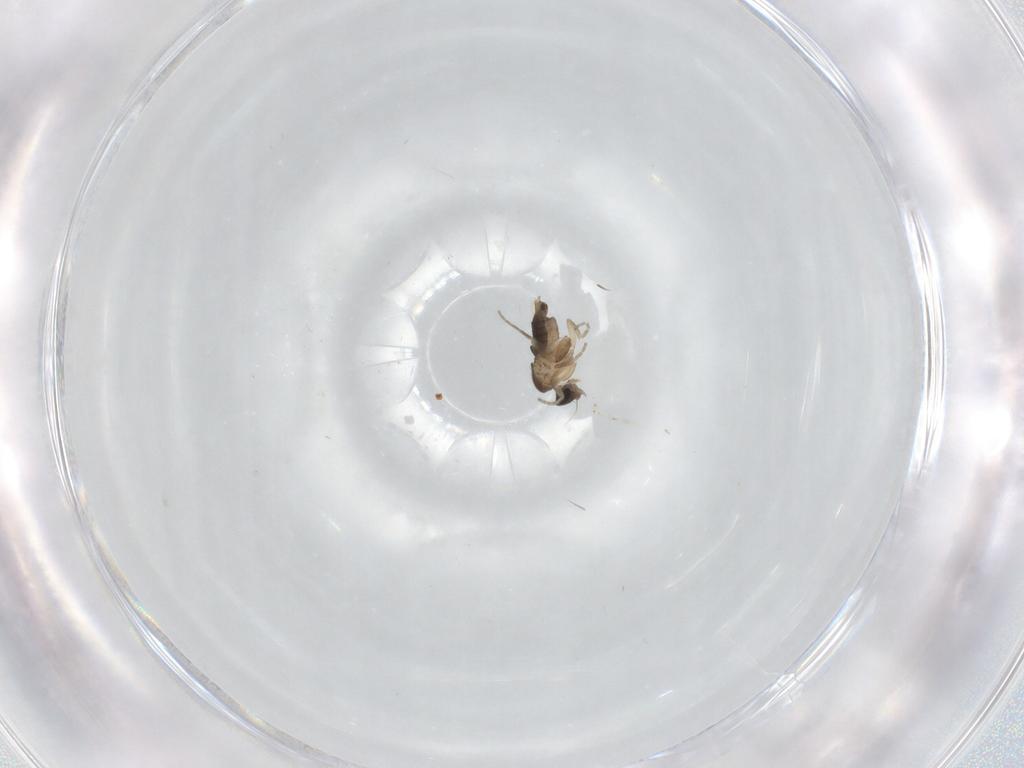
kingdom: Animalia
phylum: Arthropoda
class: Insecta
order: Diptera
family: Phoridae
